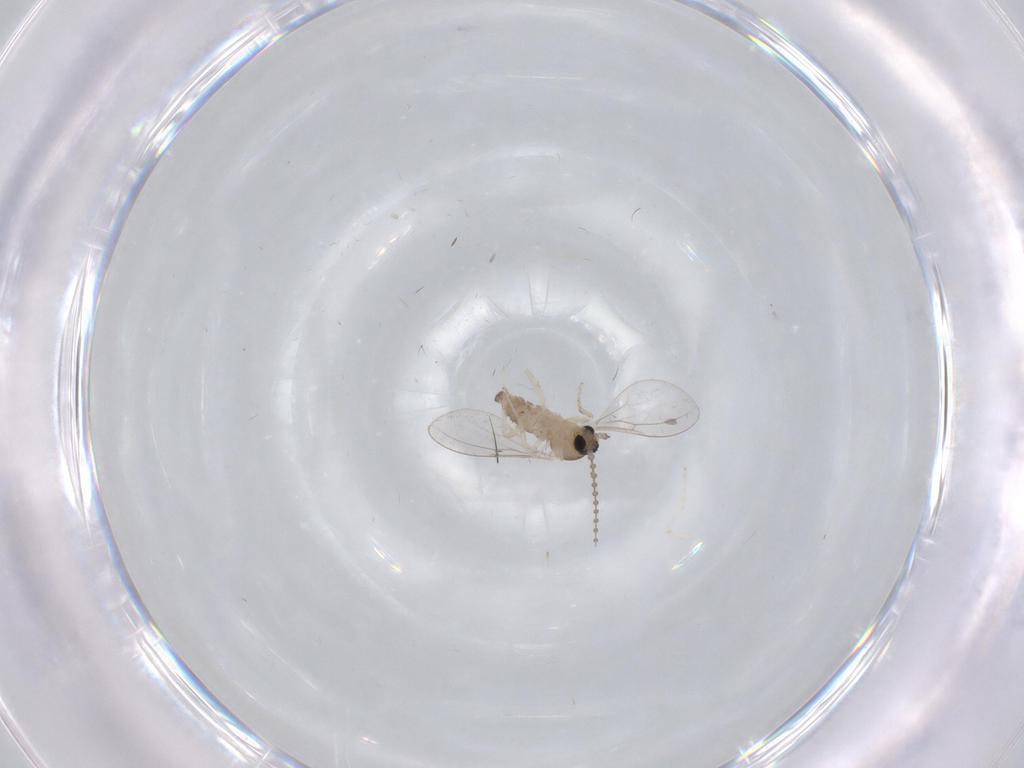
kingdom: Animalia
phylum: Arthropoda
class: Insecta
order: Diptera
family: Cecidomyiidae
